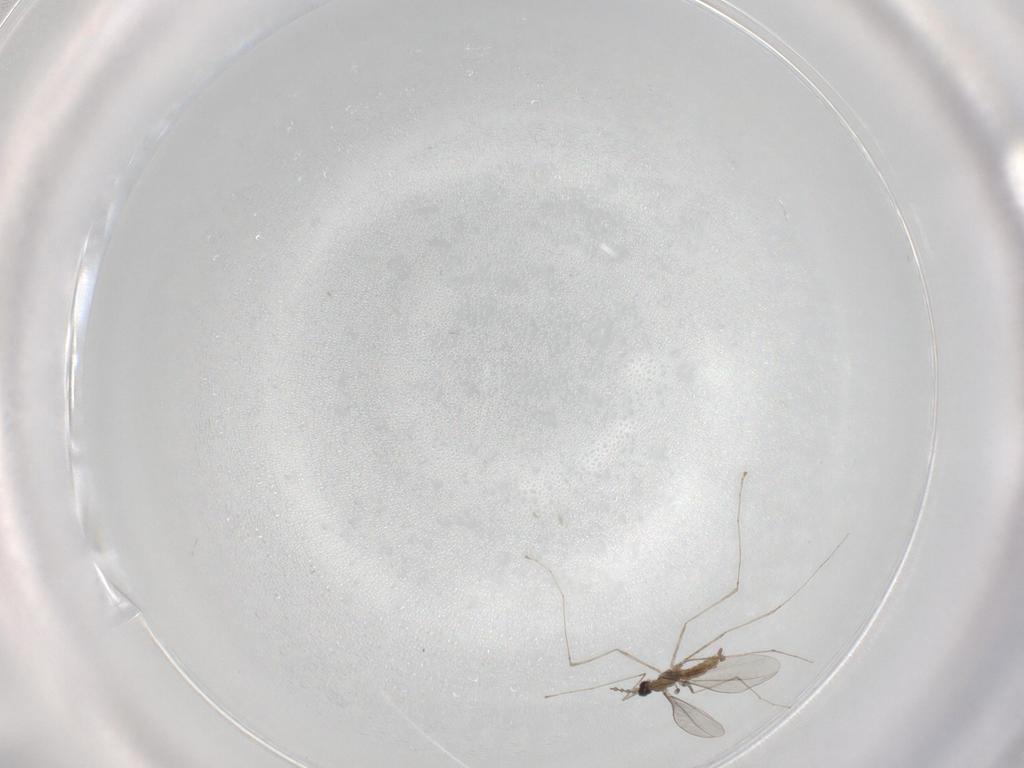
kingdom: Animalia
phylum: Arthropoda
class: Insecta
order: Diptera
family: Cecidomyiidae
